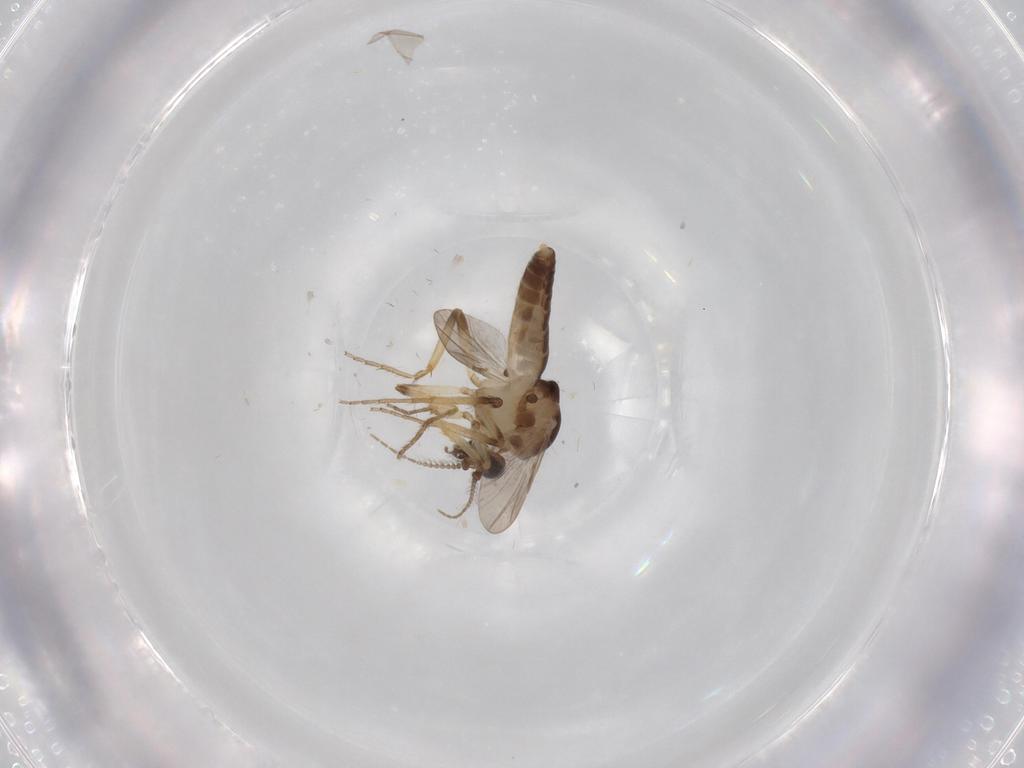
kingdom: Animalia
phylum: Arthropoda
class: Insecta
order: Diptera
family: Ceratopogonidae
